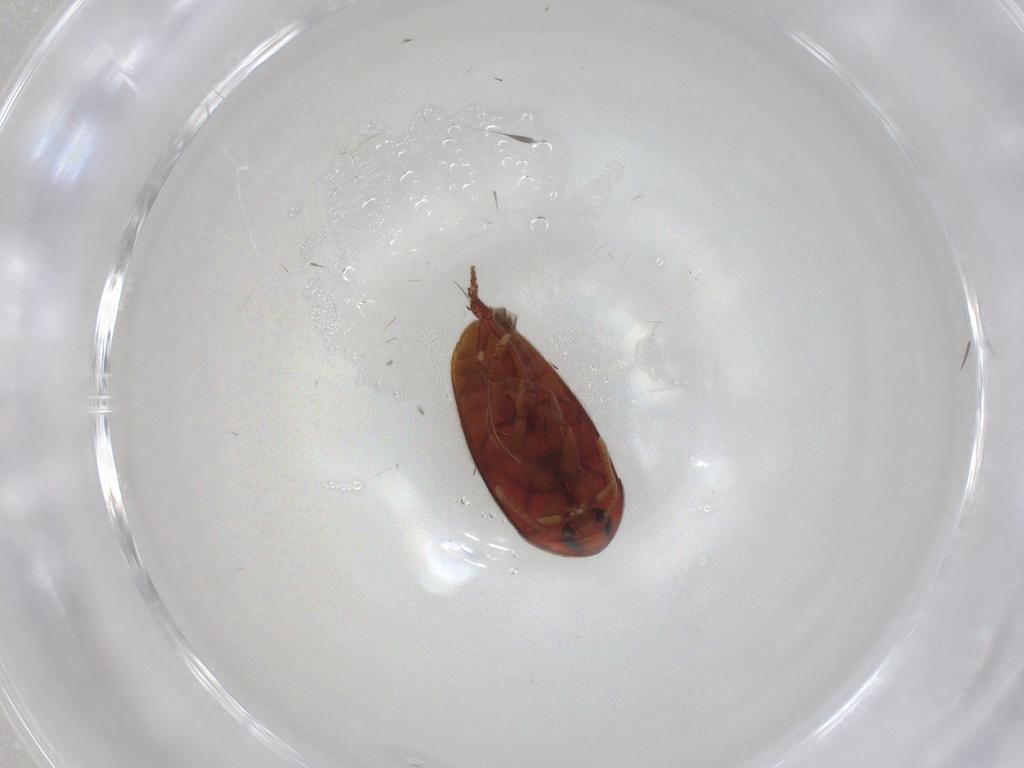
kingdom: Animalia
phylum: Arthropoda
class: Insecta
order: Coleoptera
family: Scraptiidae
